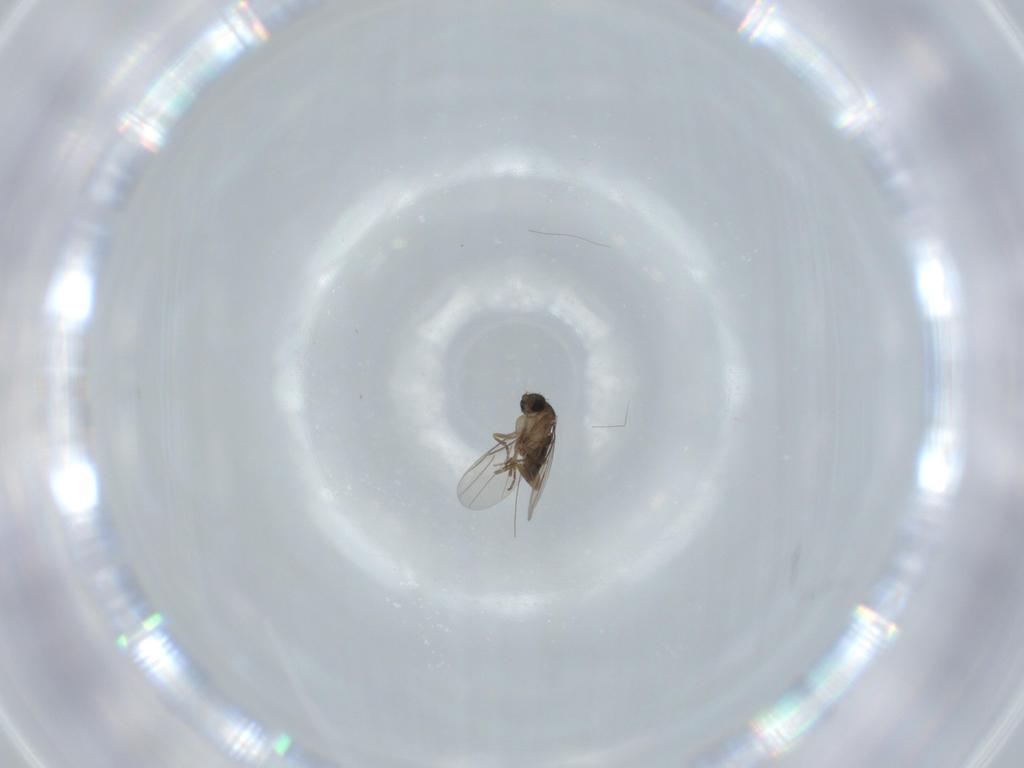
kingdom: Animalia
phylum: Arthropoda
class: Insecta
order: Diptera
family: Phoridae
